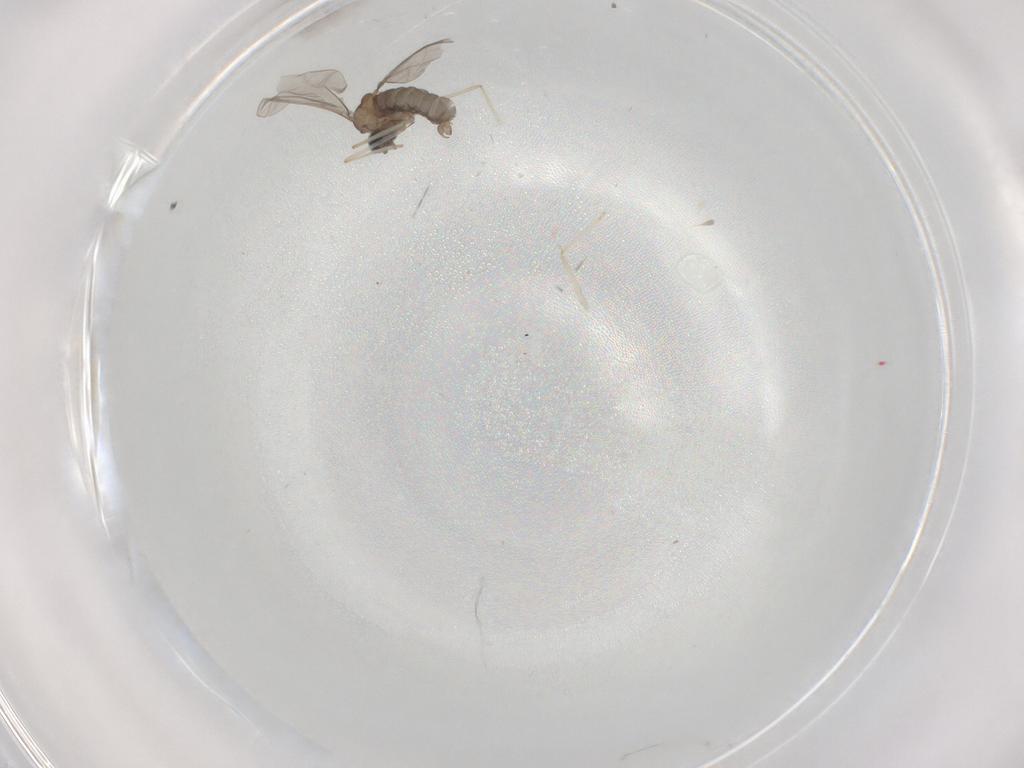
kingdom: Animalia
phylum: Arthropoda
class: Insecta
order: Diptera
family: Cecidomyiidae
